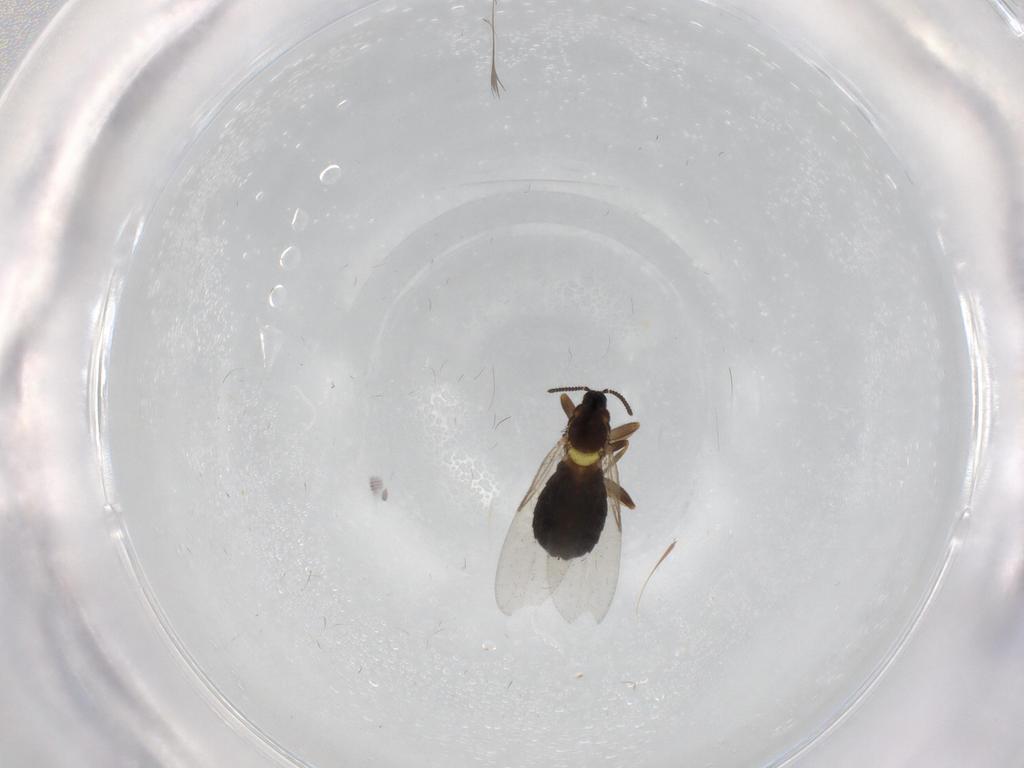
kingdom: Animalia
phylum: Arthropoda
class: Insecta
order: Diptera
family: Scatopsidae
